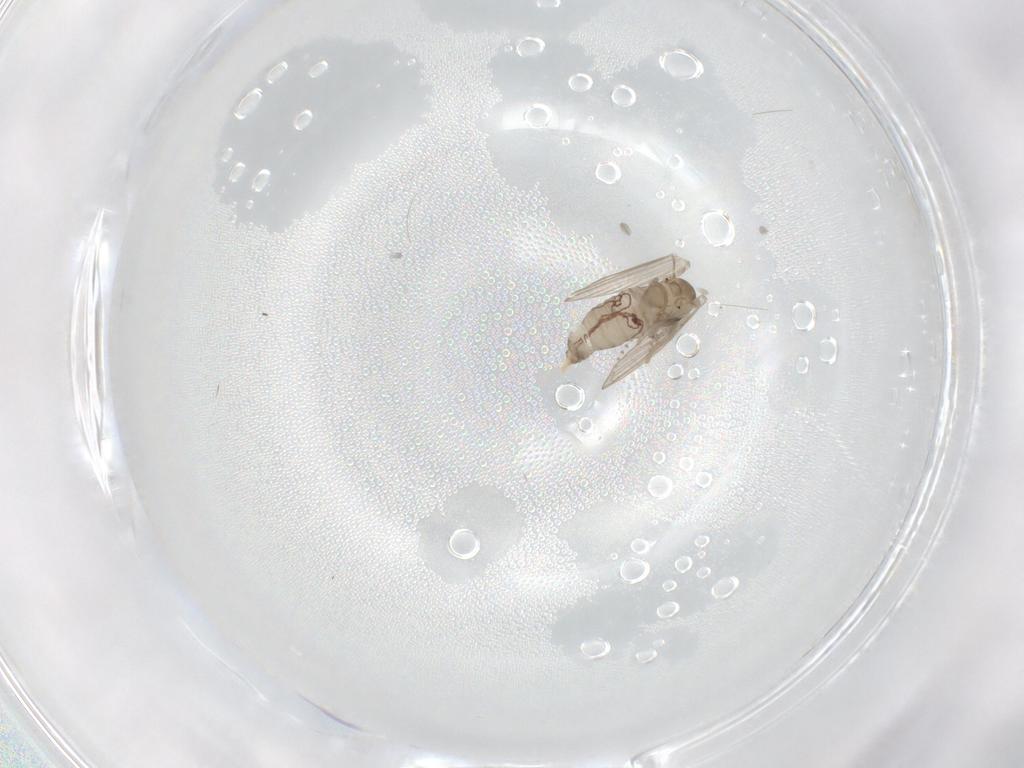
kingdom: Animalia
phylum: Arthropoda
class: Insecta
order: Diptera
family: Psychodidae
